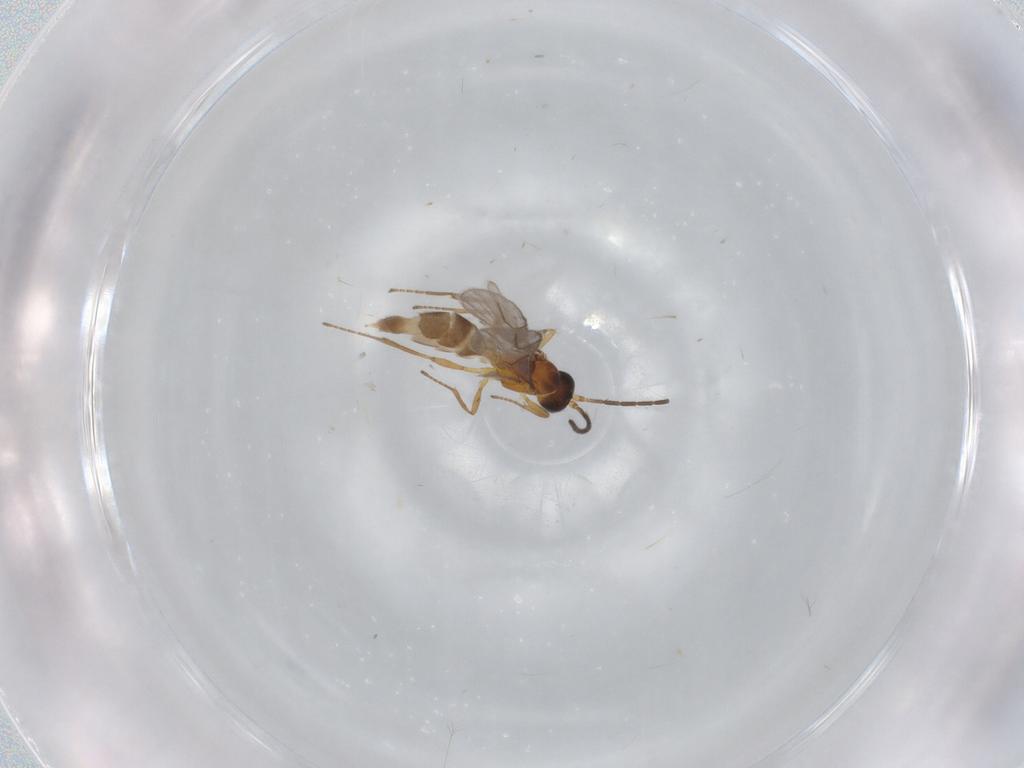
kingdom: Animalia
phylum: Arthropoda
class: Insecta
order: Hymenoptera
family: Braconidae
